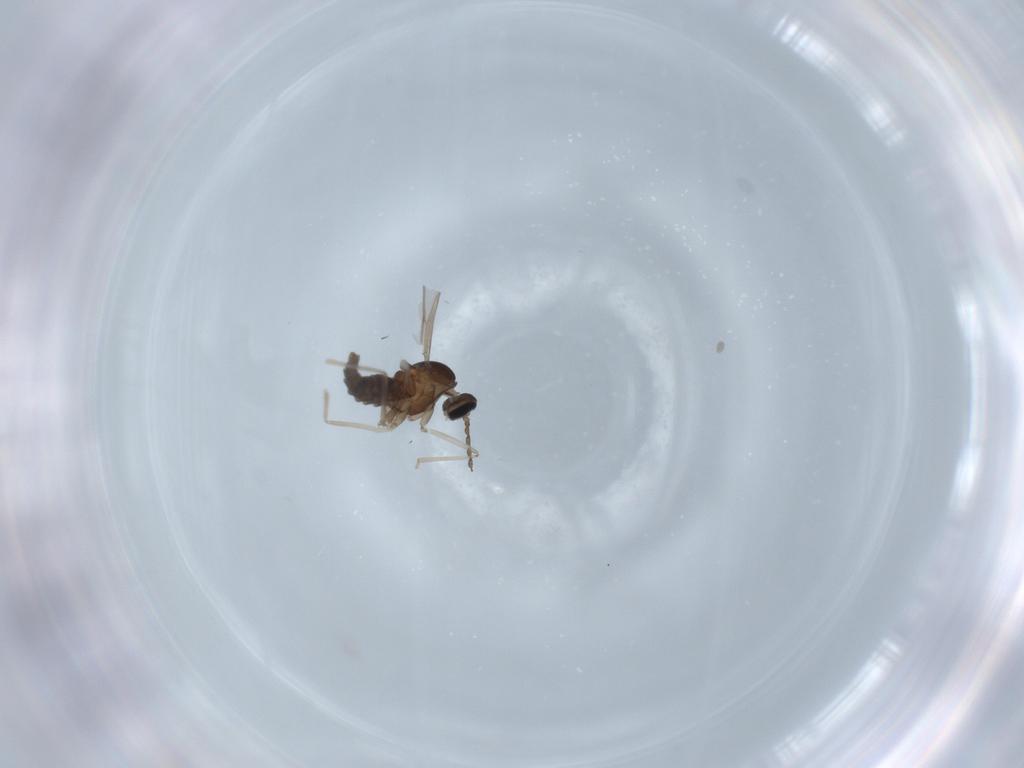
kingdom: Animalia
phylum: Arthropoda
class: Insecta
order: Diptera
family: Cecidomyiidae
